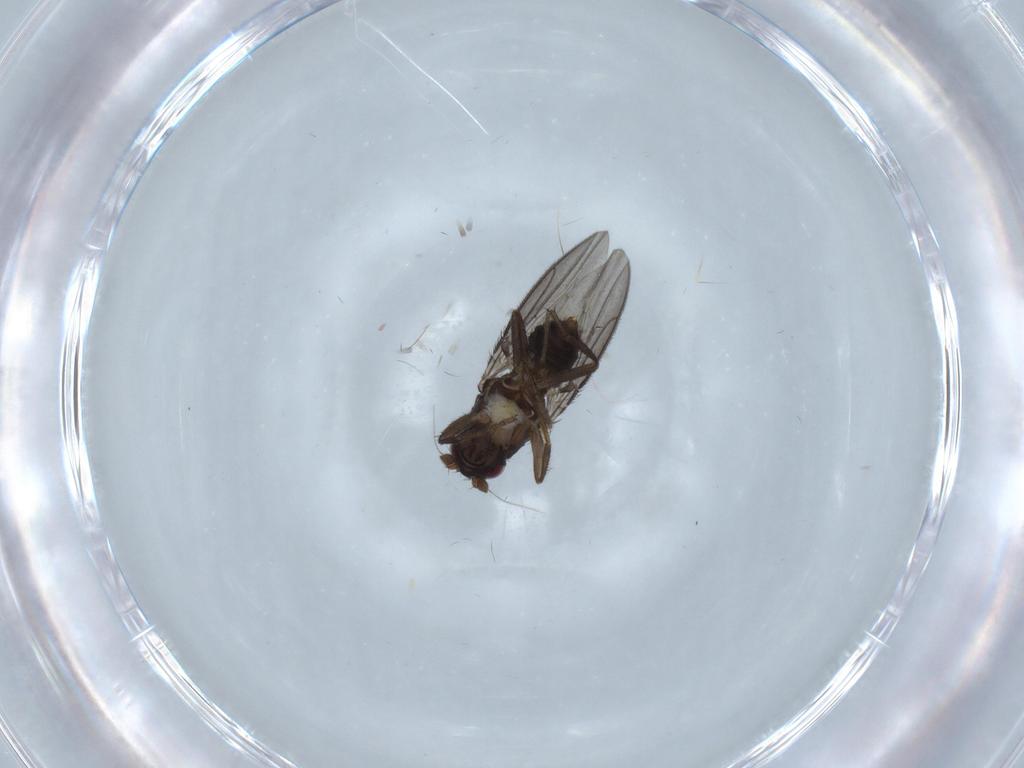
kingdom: Animalia
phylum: Arthropoda
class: Insecta
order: Diptera
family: Sphaeroceridae
